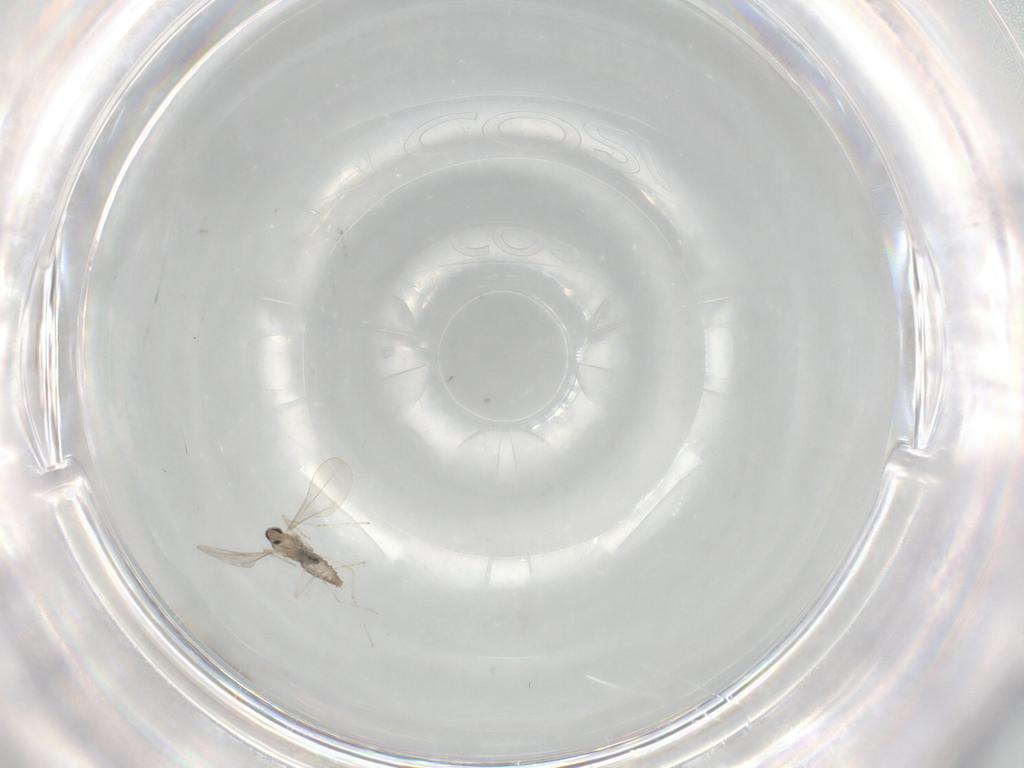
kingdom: Animalia
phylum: Arthropoda
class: Insecta
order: Diptera
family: Cecidomyiidae
